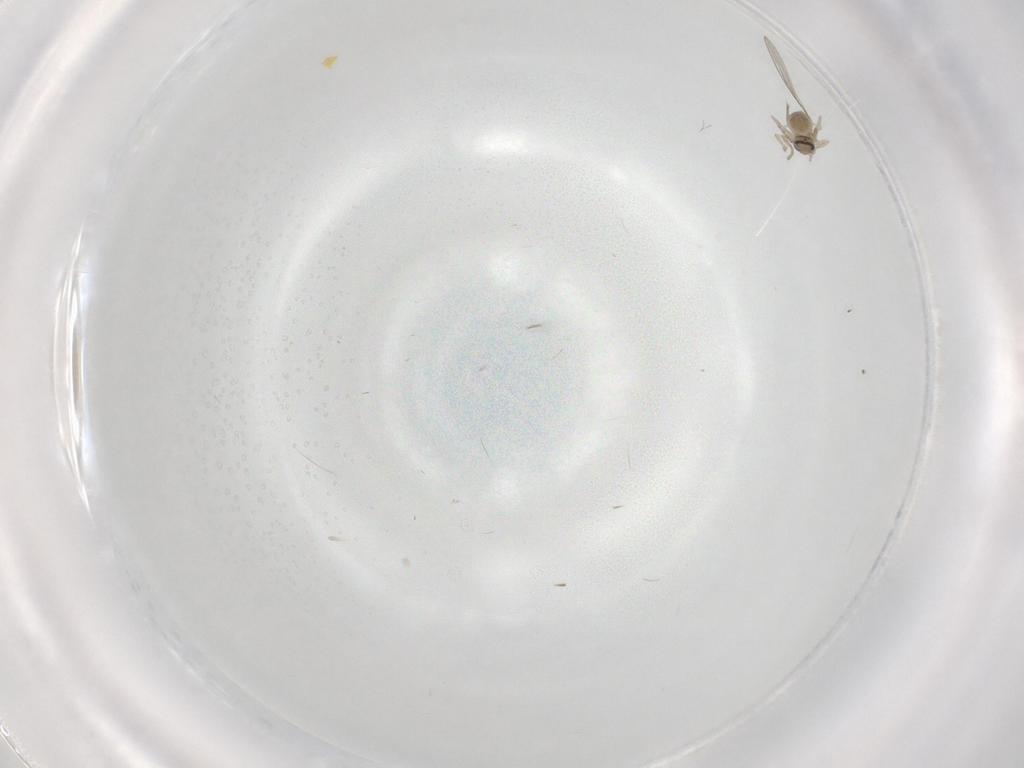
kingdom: Animalia
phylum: Arthropoda
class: Insecta
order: Diptera
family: Cecidomyiidae
